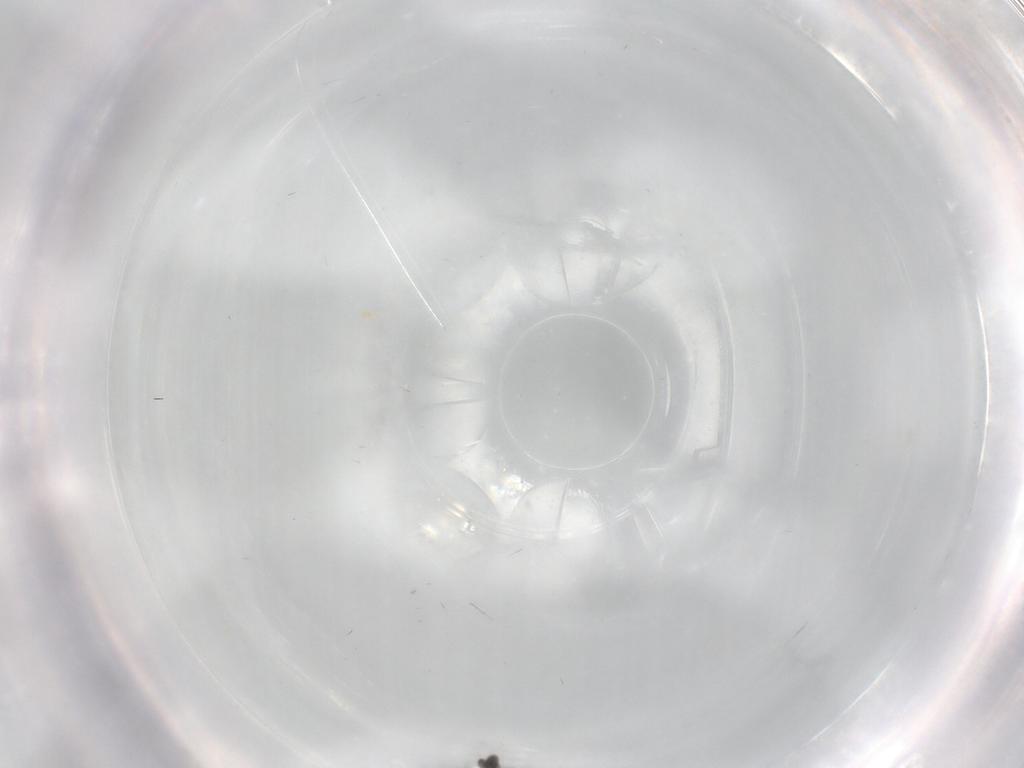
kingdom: Animalia
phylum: Arthropoda
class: Insecta
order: Diptera
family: Sciaridae
